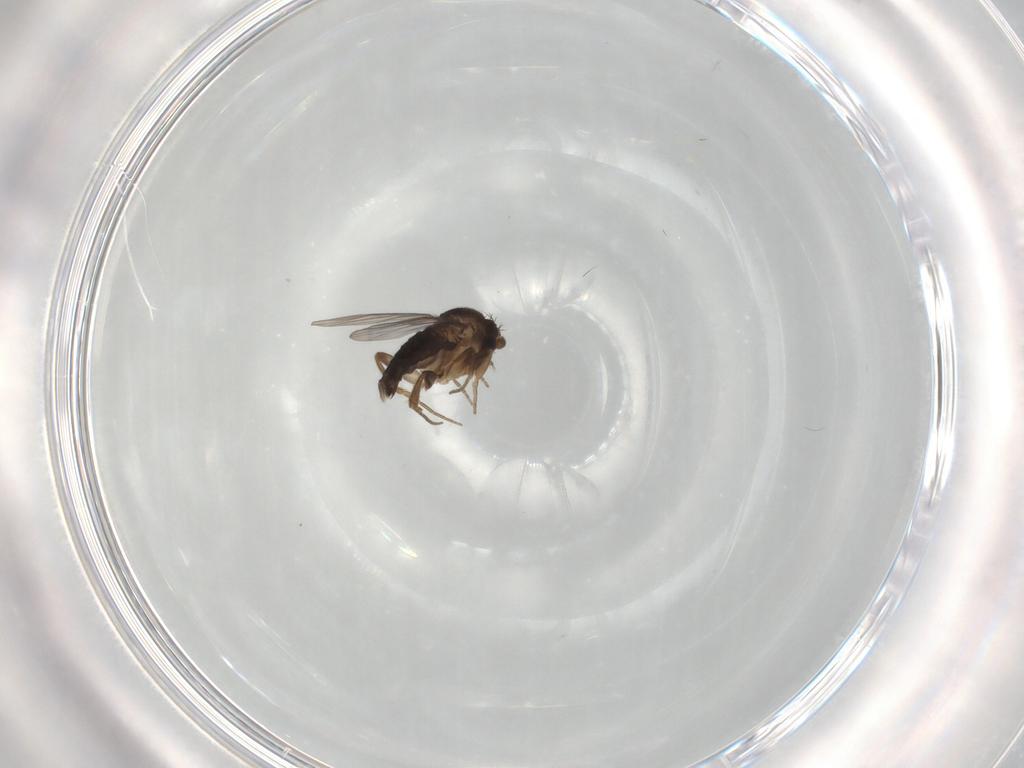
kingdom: Animalia
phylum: Arthropoda
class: Insecta
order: Diptera
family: Phoridae
